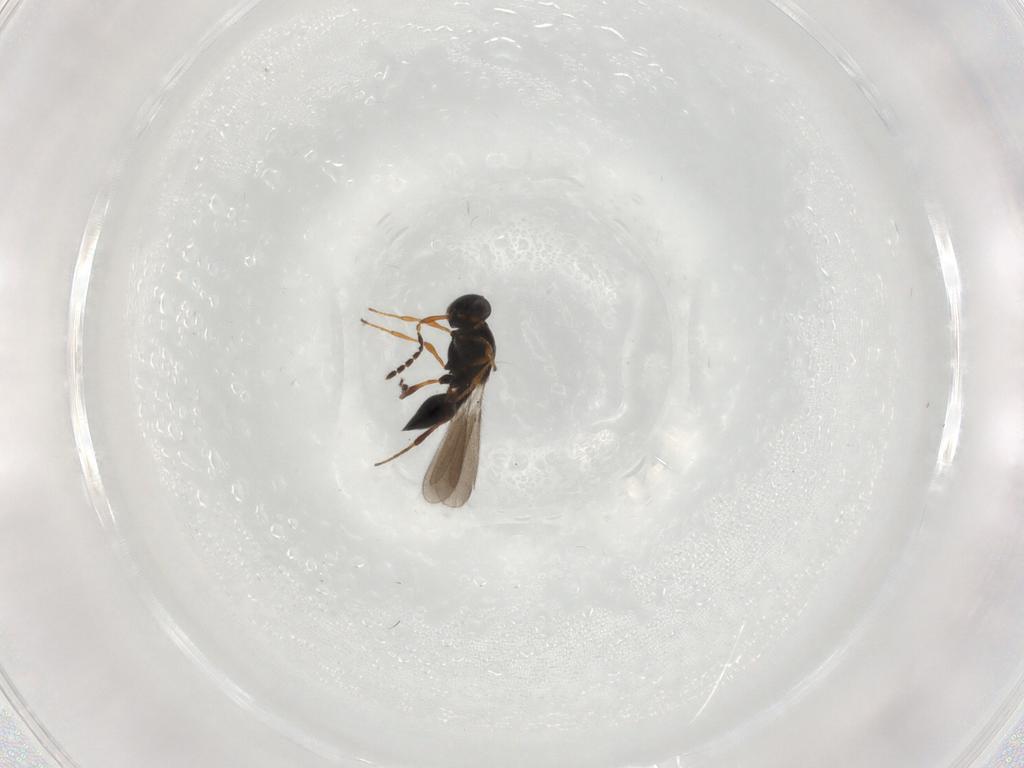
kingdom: Animalia
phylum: Arthropoda
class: Insecta
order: Hymenoptera
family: Platygastridae
